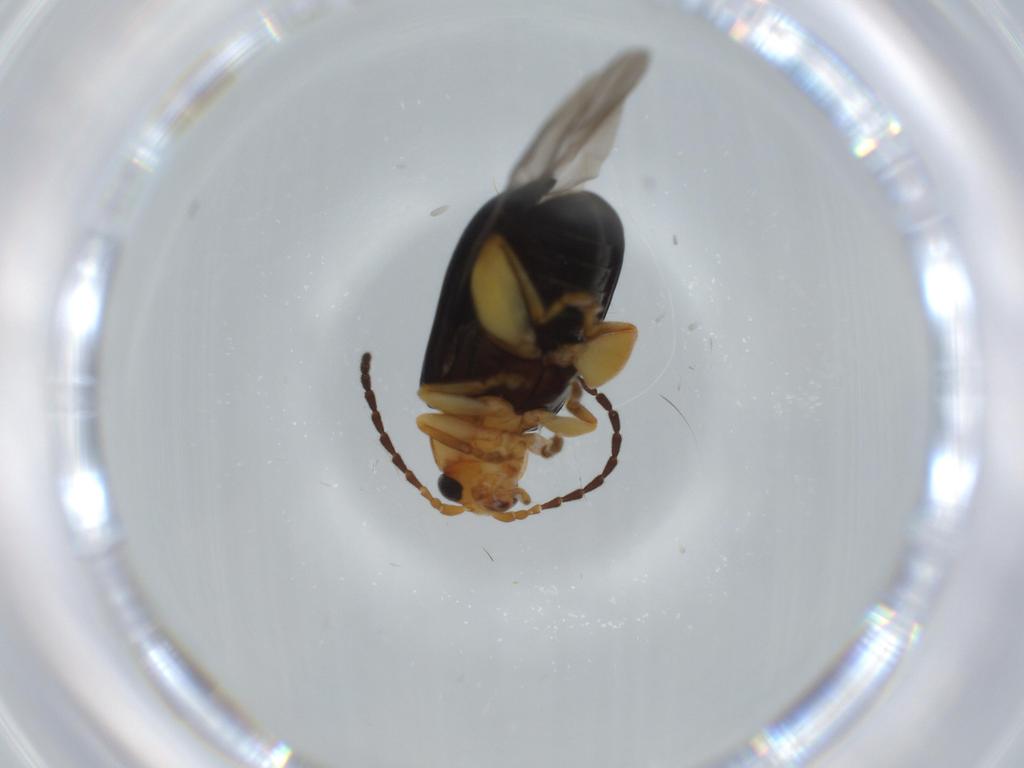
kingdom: Animalia
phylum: Arthropoda
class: Insecta
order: Coleoptera
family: Chrysomelidae
